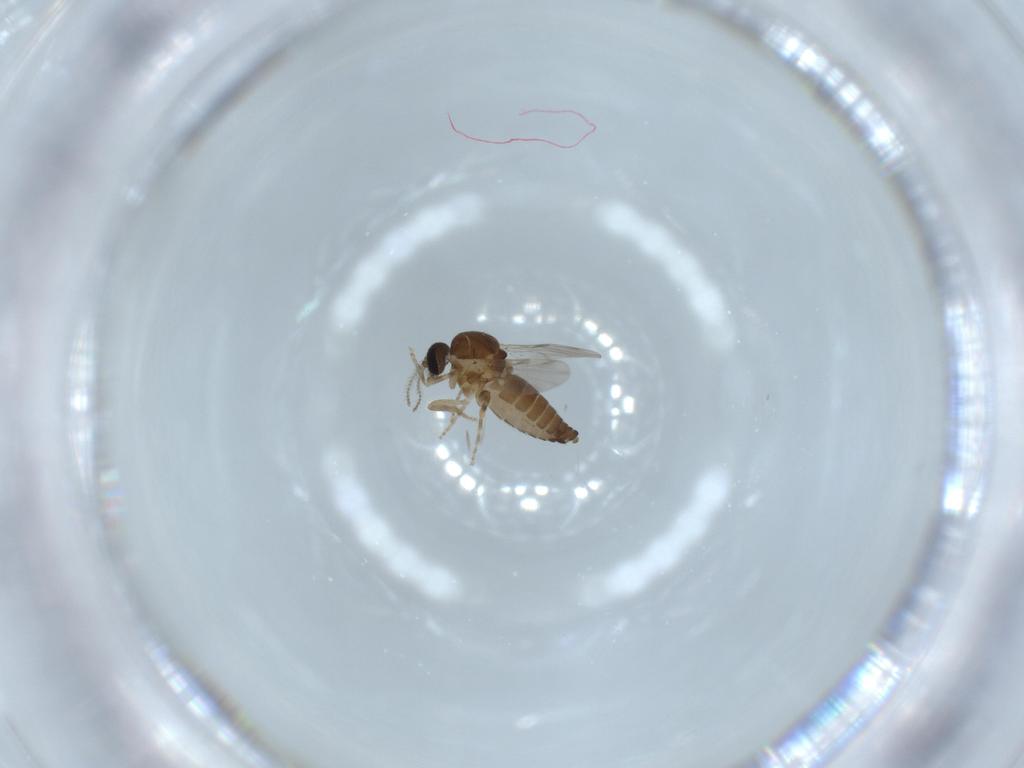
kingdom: Animalia
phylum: Arthropoda
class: Insecta
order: Diptera
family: Ceratopogonidae
